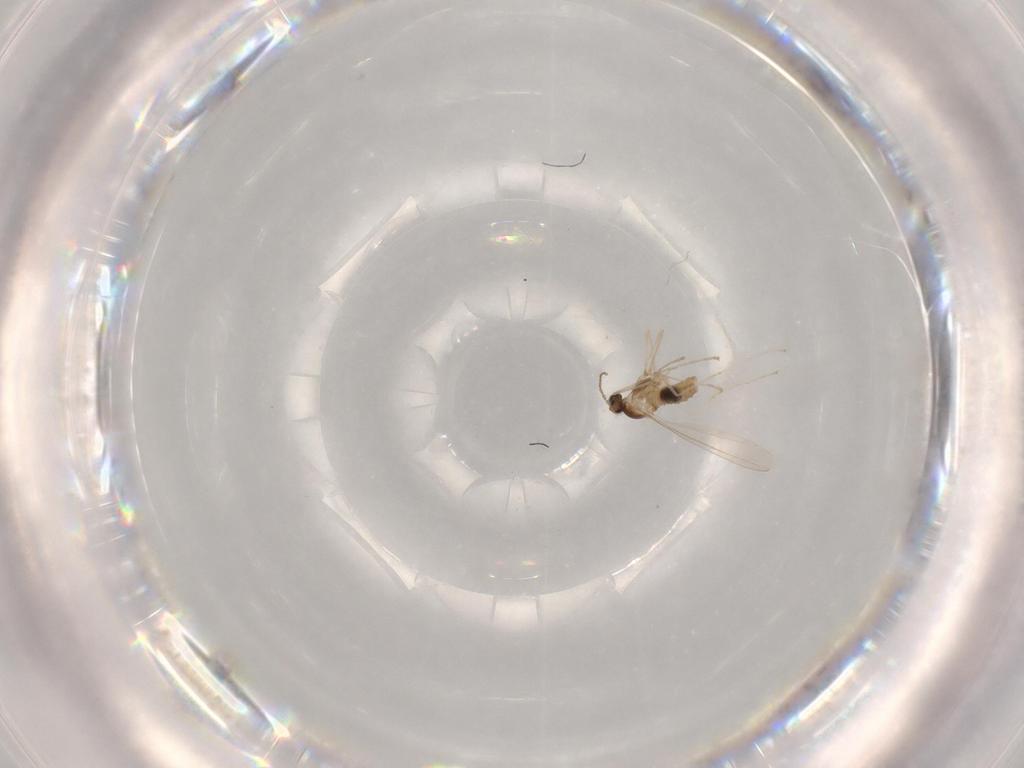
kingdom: Animalia
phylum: Arthropoda
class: Insecta
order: Diptera
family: Cecidomyiidae
